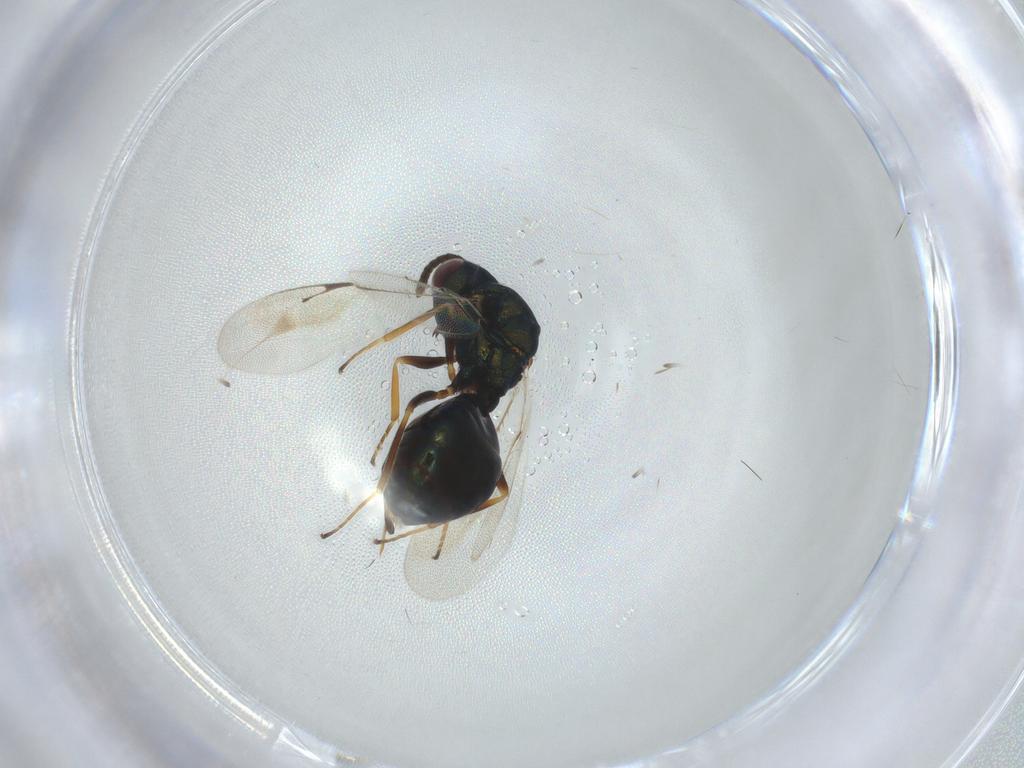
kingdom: Animalia
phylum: Arthropoda
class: Insecta
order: Hymenoptera
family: Pteromalidae
